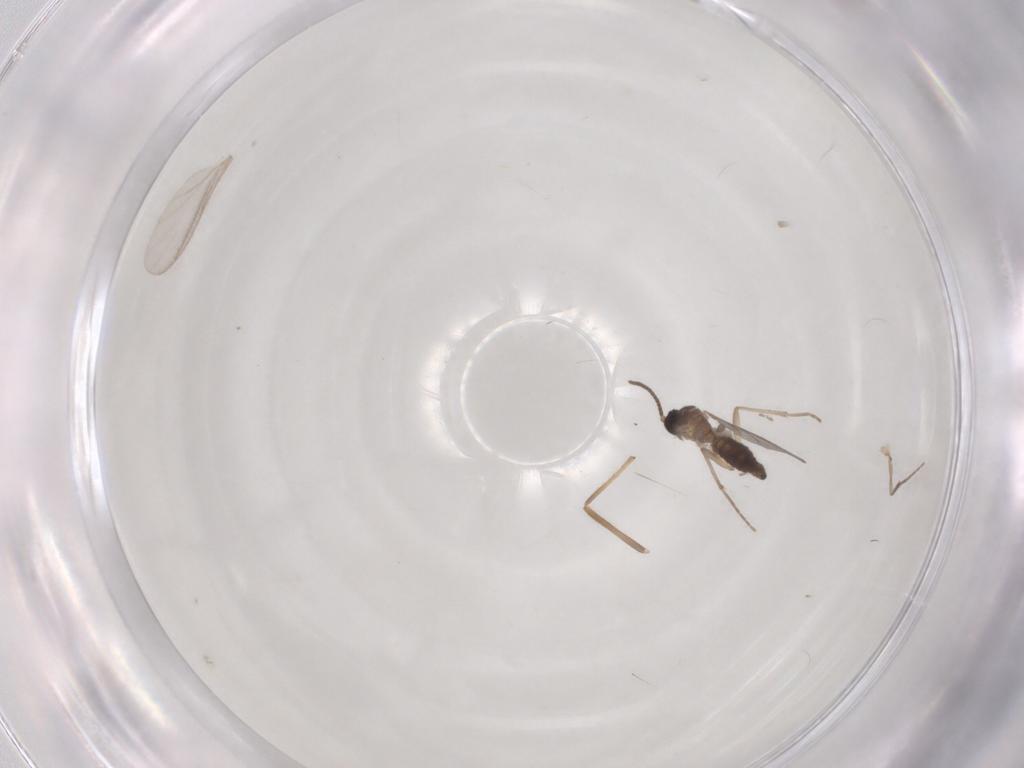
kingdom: Animalia
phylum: Arthropoda
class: Insecta
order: Diptera
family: Sciaridae
